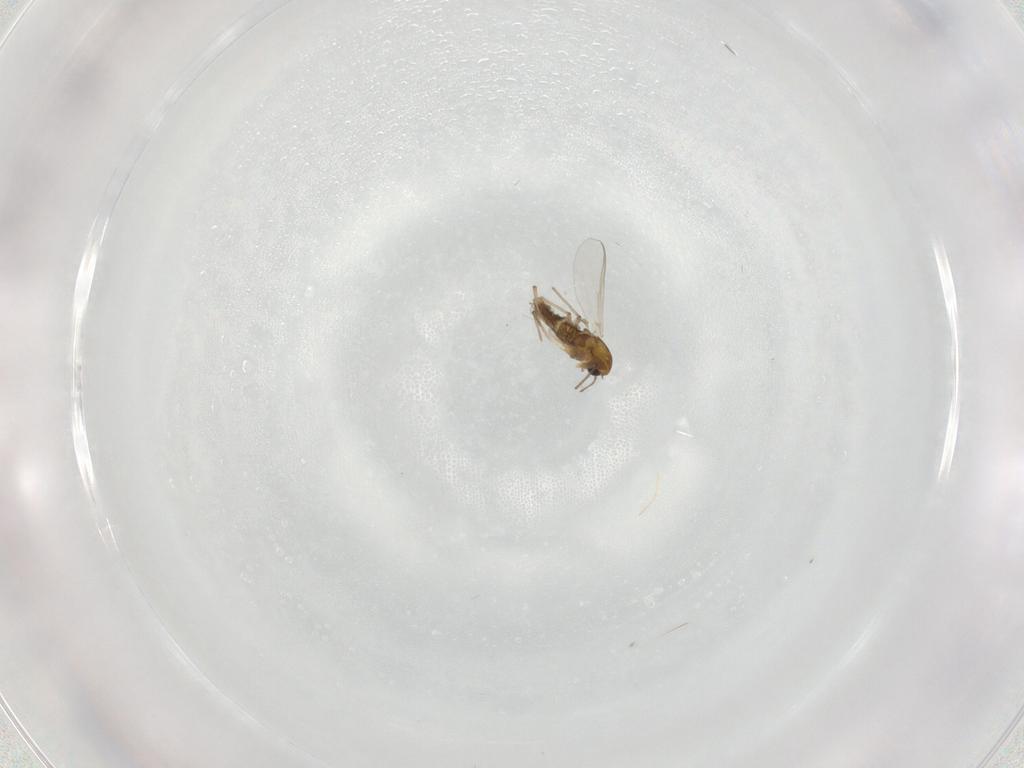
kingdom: Animalia
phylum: Arthropoda
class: Insecta
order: Diptera
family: Chironomidae
